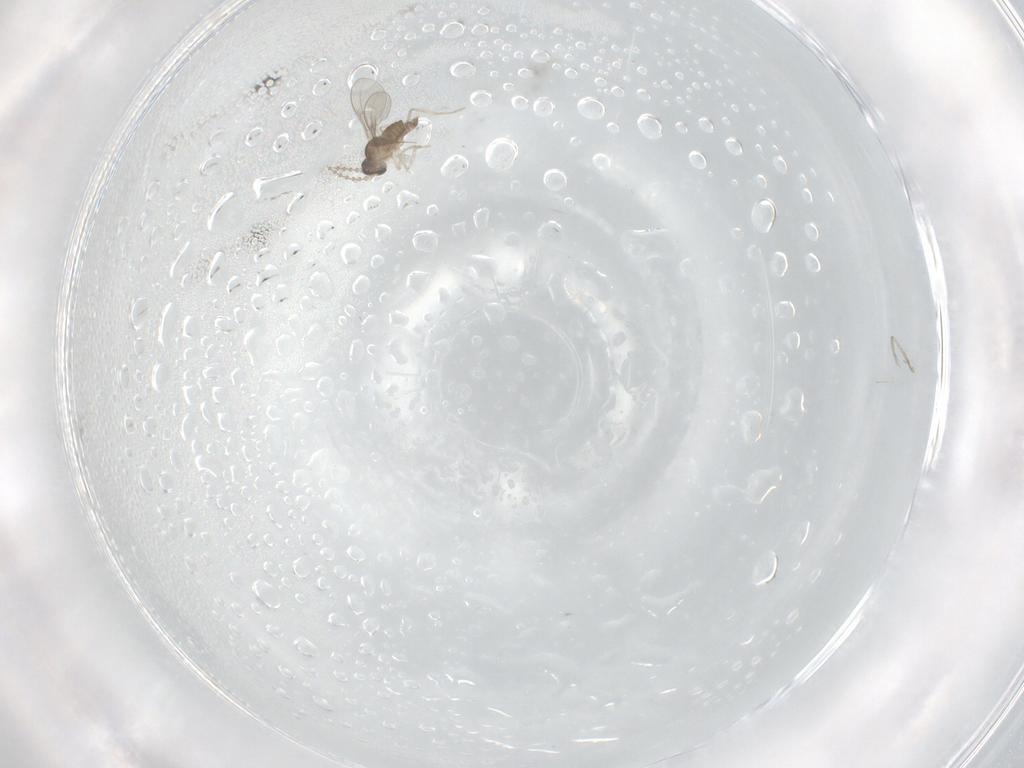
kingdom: Animalia
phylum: Arthropoda
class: Insecta
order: Diptera
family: Cecidomyiidae
